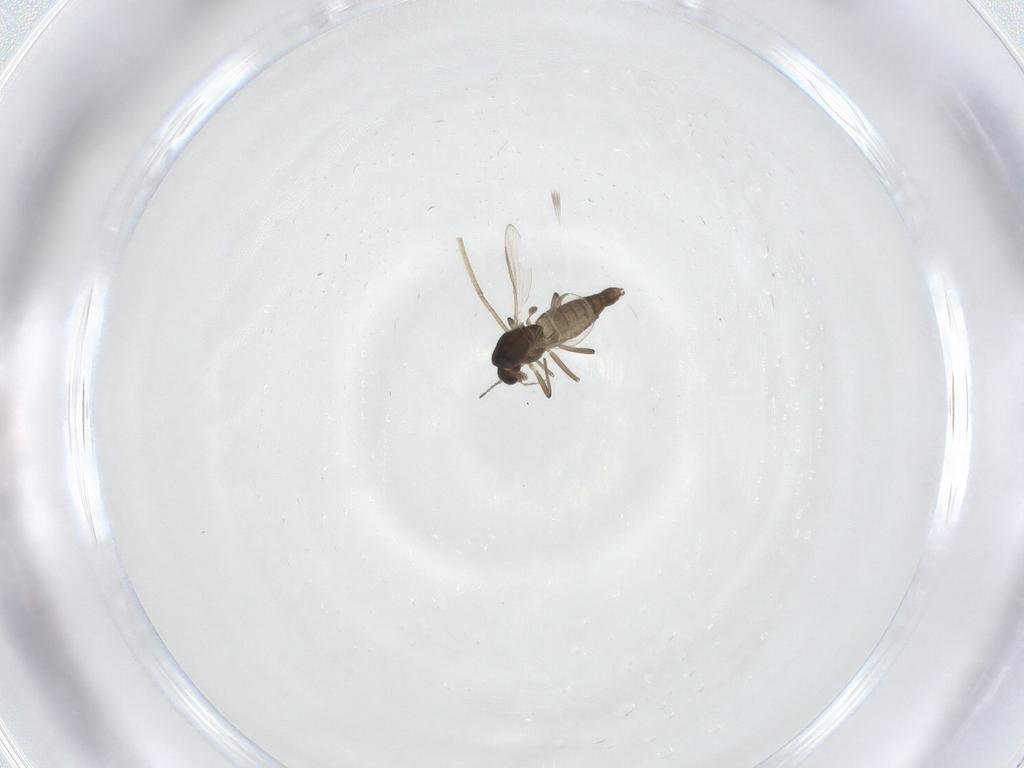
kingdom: Animalia
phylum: Arthropoda
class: Insecta
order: Diptera
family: Chironomidae
